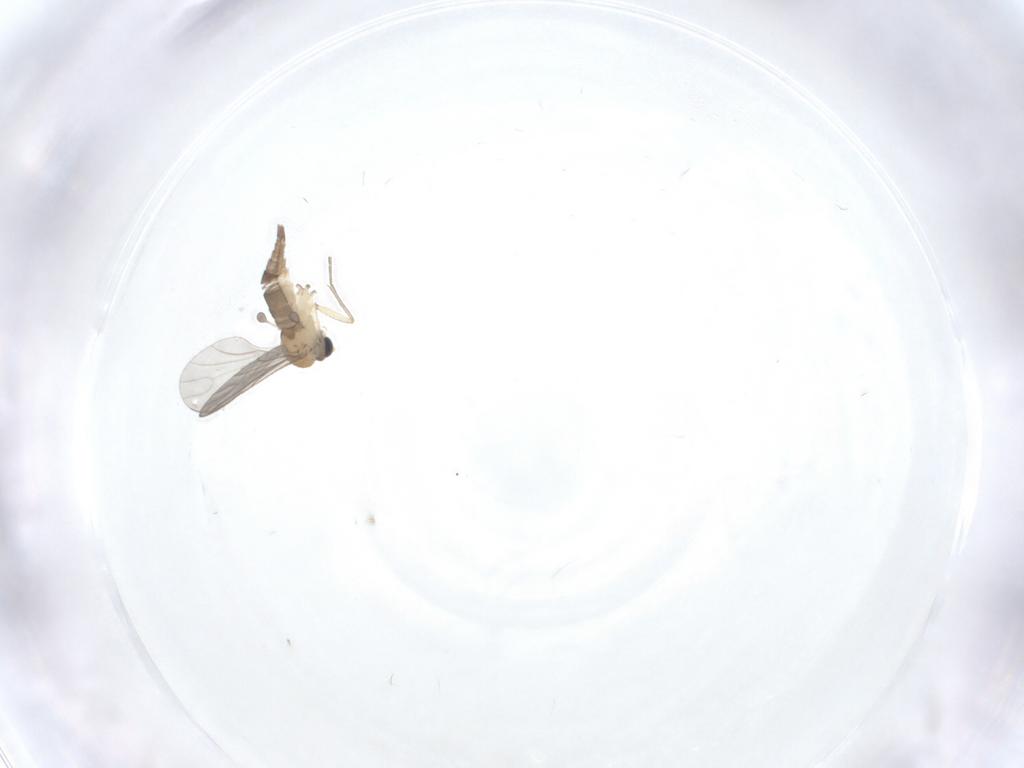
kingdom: Animalia
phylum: Arthropoda
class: Insecta
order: Diptera
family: Sciaridae
